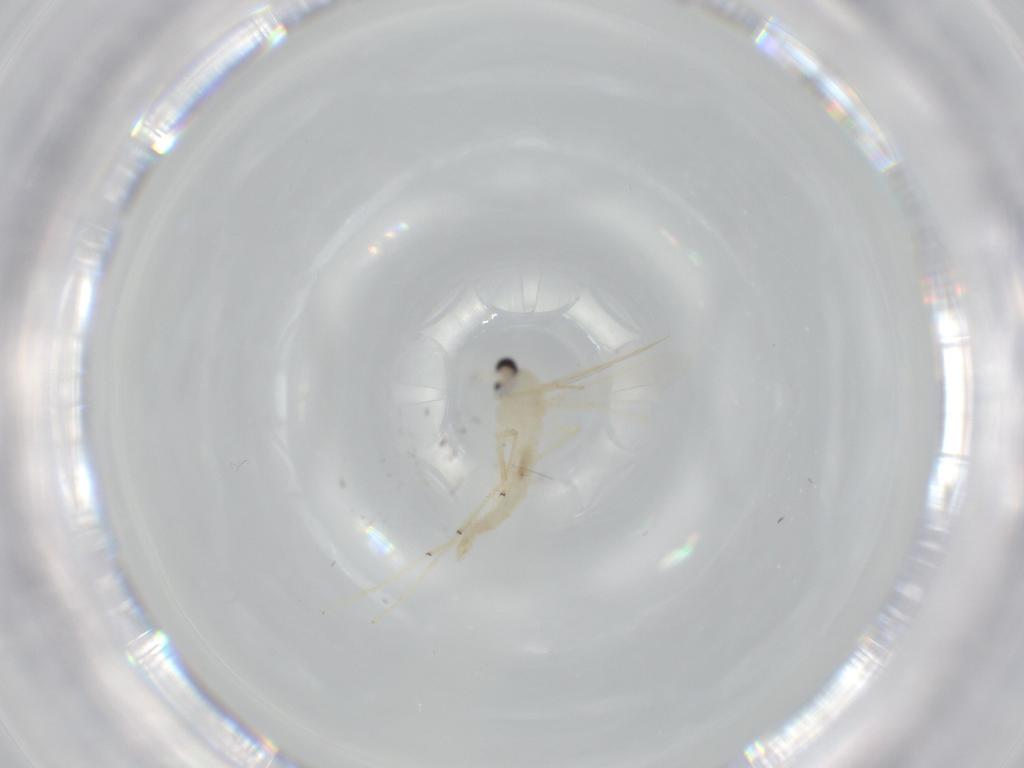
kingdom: Animalia
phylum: Arthropoda
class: Insecta
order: Diptera
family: Chironomidae
